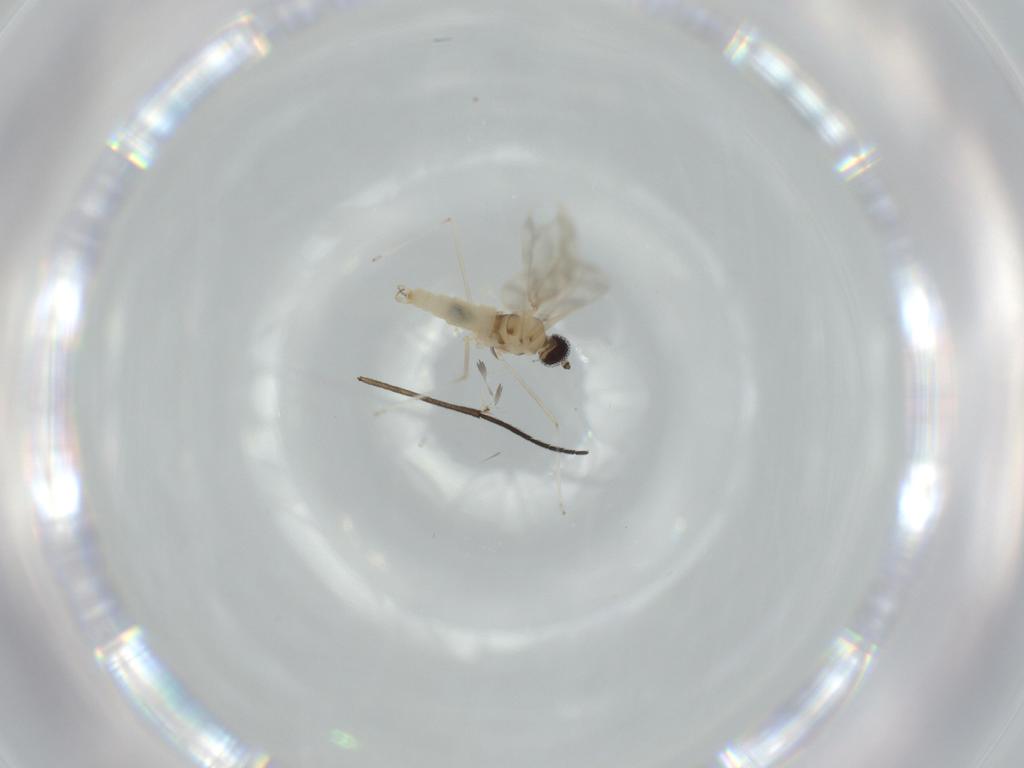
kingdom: Animalia
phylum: Arthropoda
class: Insecta
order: Diptera
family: Cecidomyiidae
